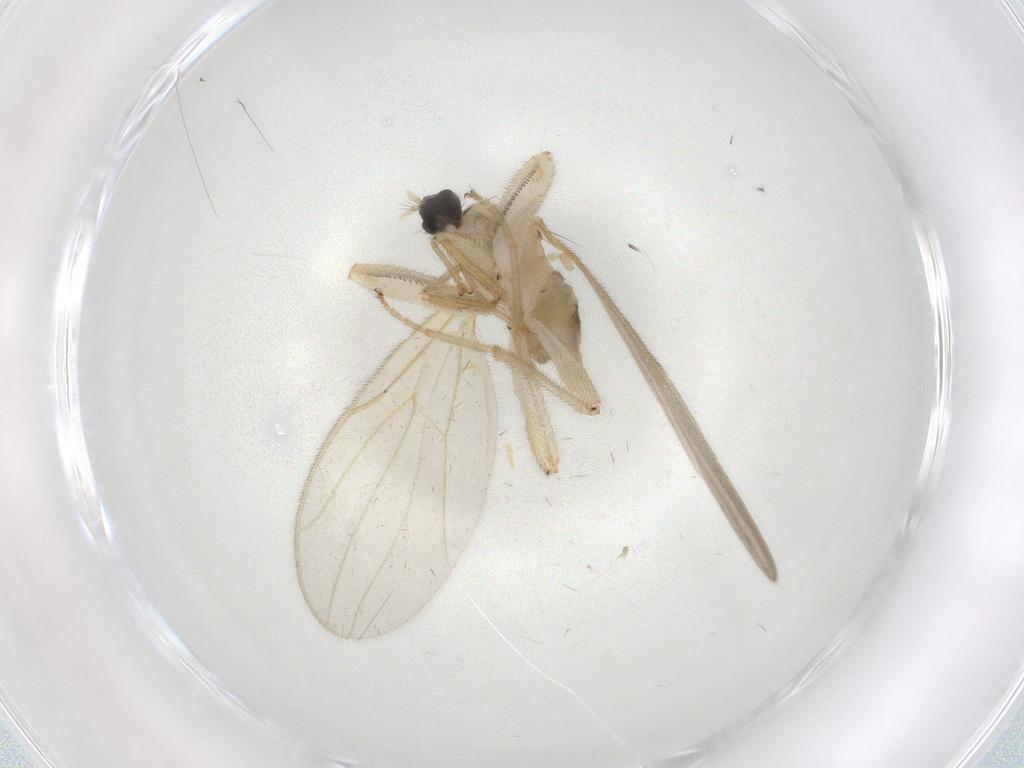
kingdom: Animalia
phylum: Arthropoda
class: Insecta
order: Diptera
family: Hybotidae
